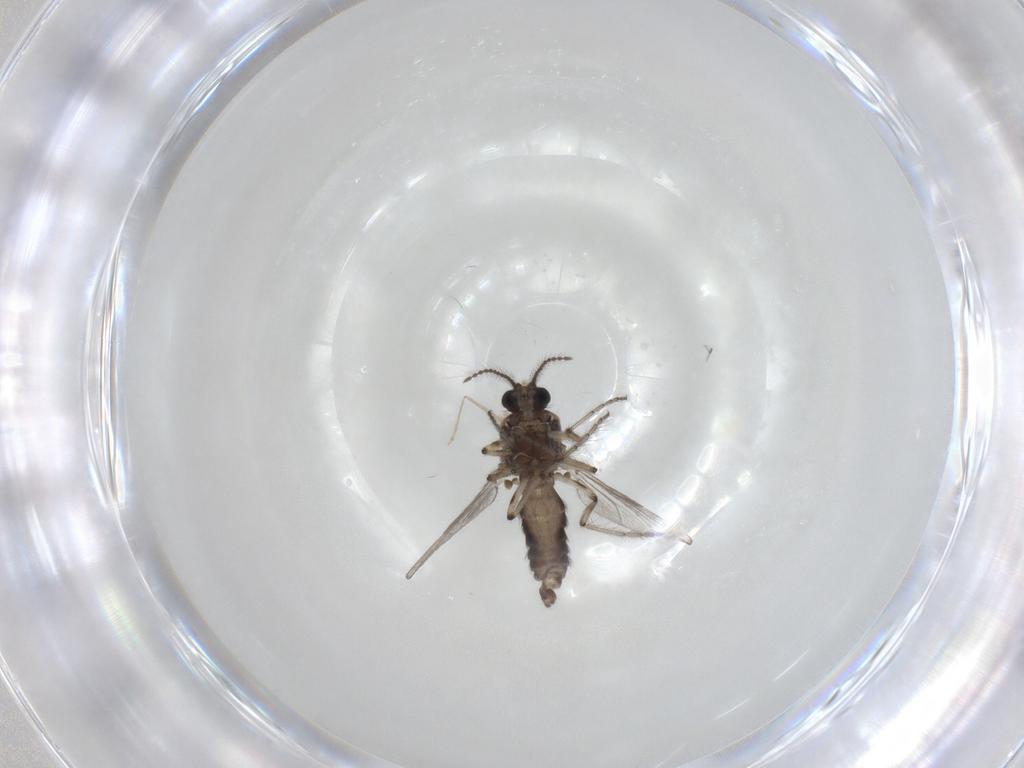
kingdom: Animalia
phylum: Arthropoda
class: Insecta
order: Diptera
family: Ceratopogonidae
